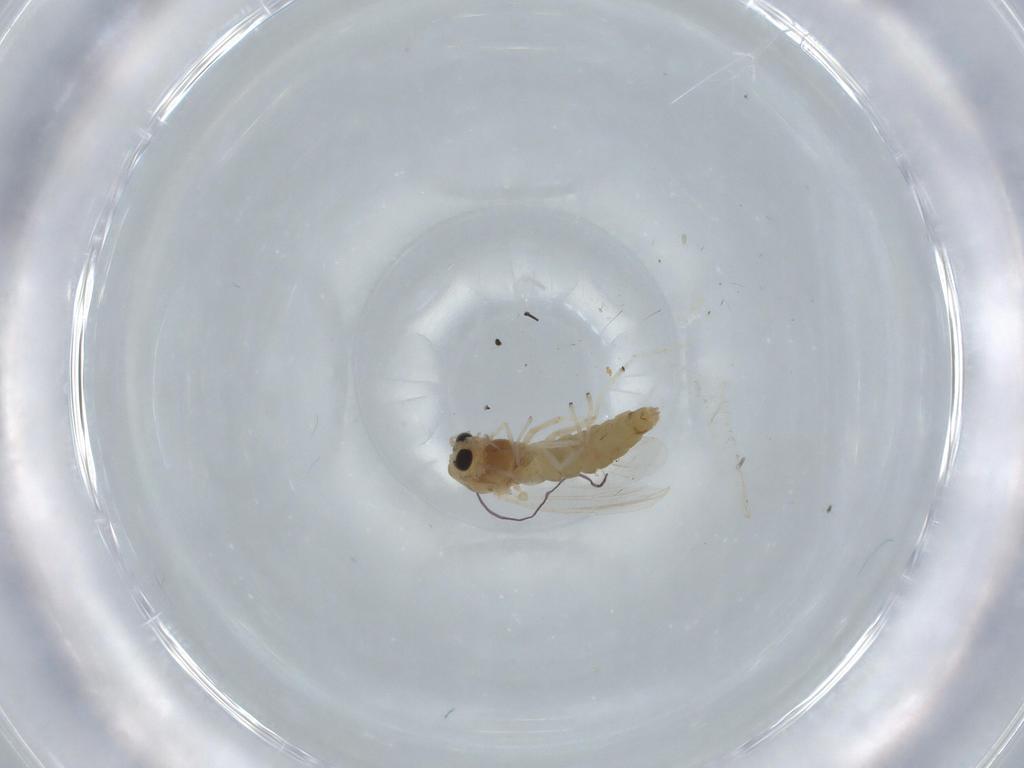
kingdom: Animalia
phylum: Arthropoda
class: Insecta
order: Diptera
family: Chironomidae
